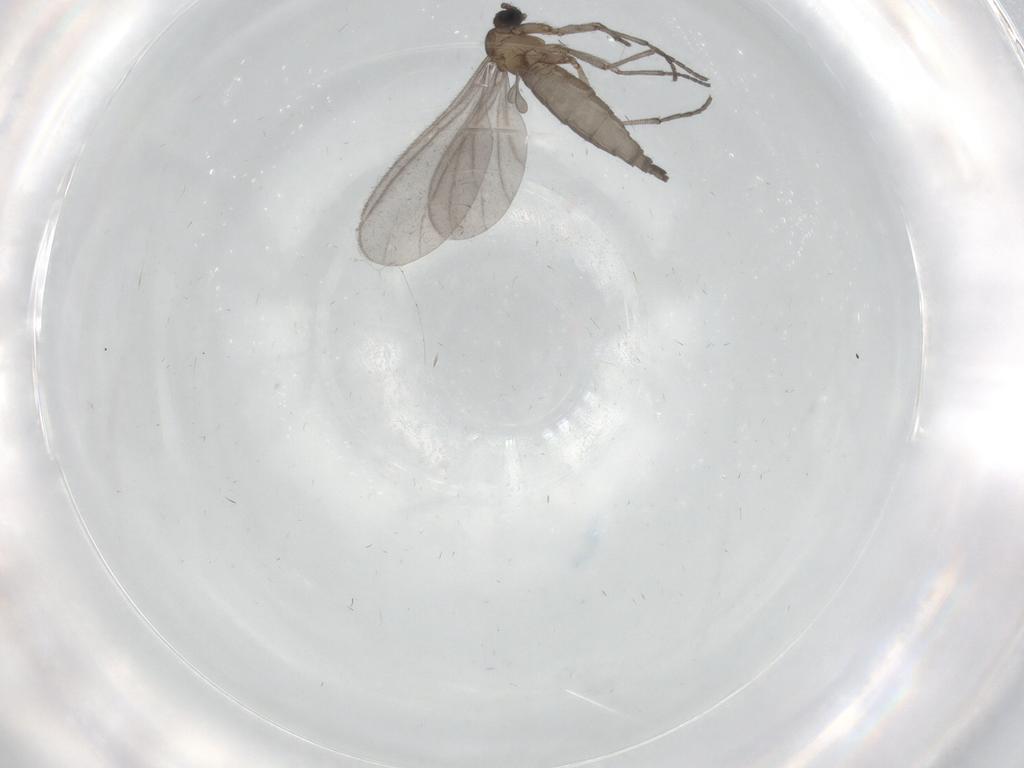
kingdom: Animalia
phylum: Arthropoda
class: Insecta
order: Diptera
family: Sciaridae
